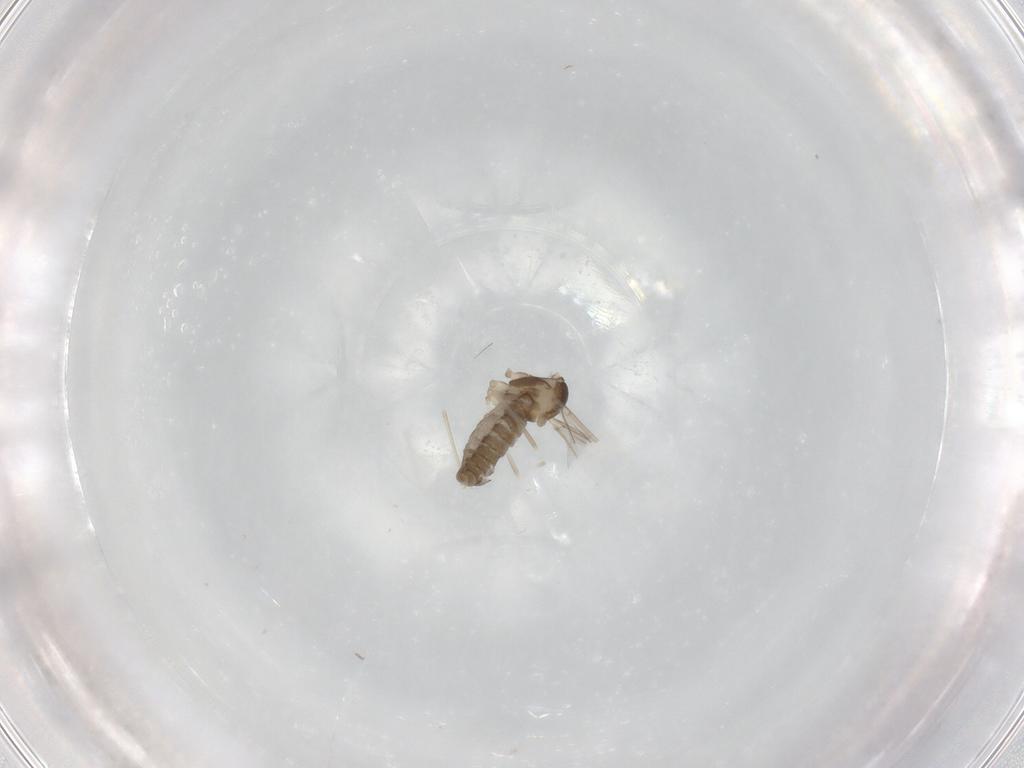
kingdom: Animalia
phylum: Arthropoda
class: Insecta
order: Diptera
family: Cecidomyiidae
